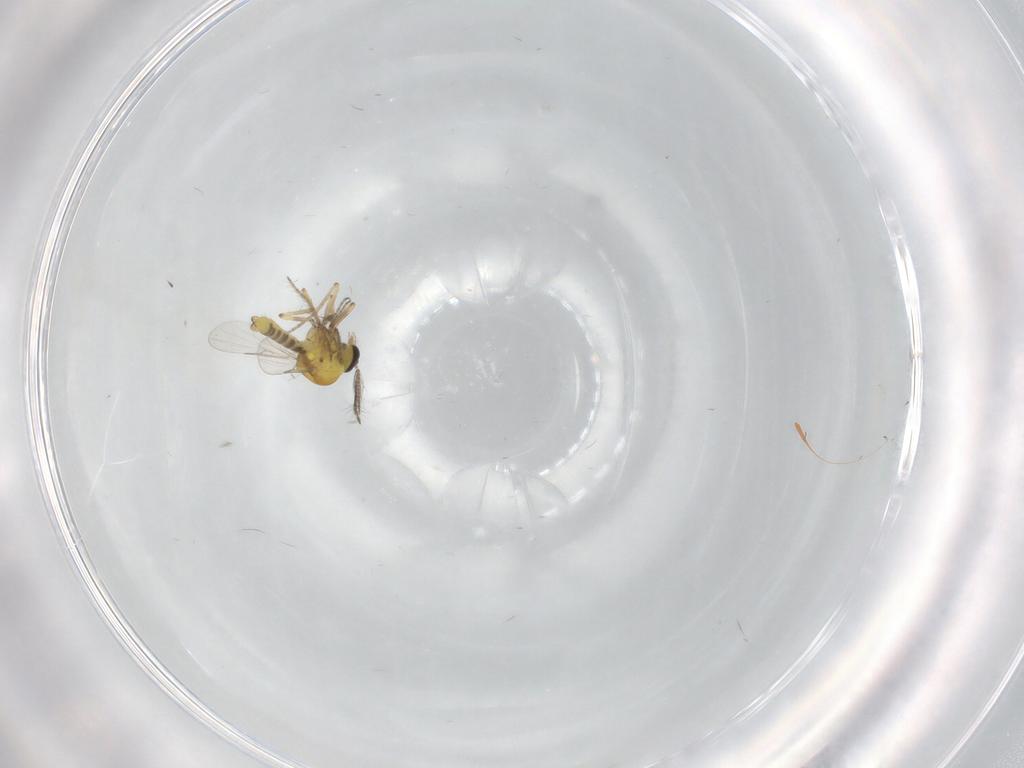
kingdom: Animalia
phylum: Arthropoda
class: Insecta
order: Diptera
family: Psychodidae
